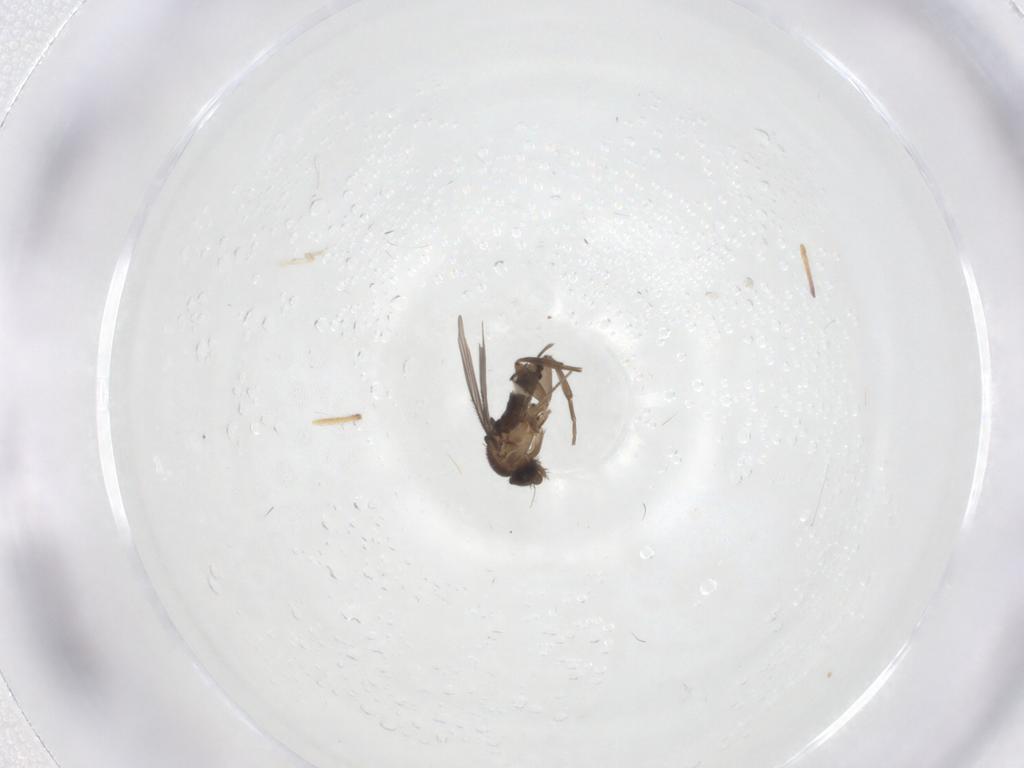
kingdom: Animalia
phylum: Arthropoda
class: Insecta
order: Diptera
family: Phoridae
